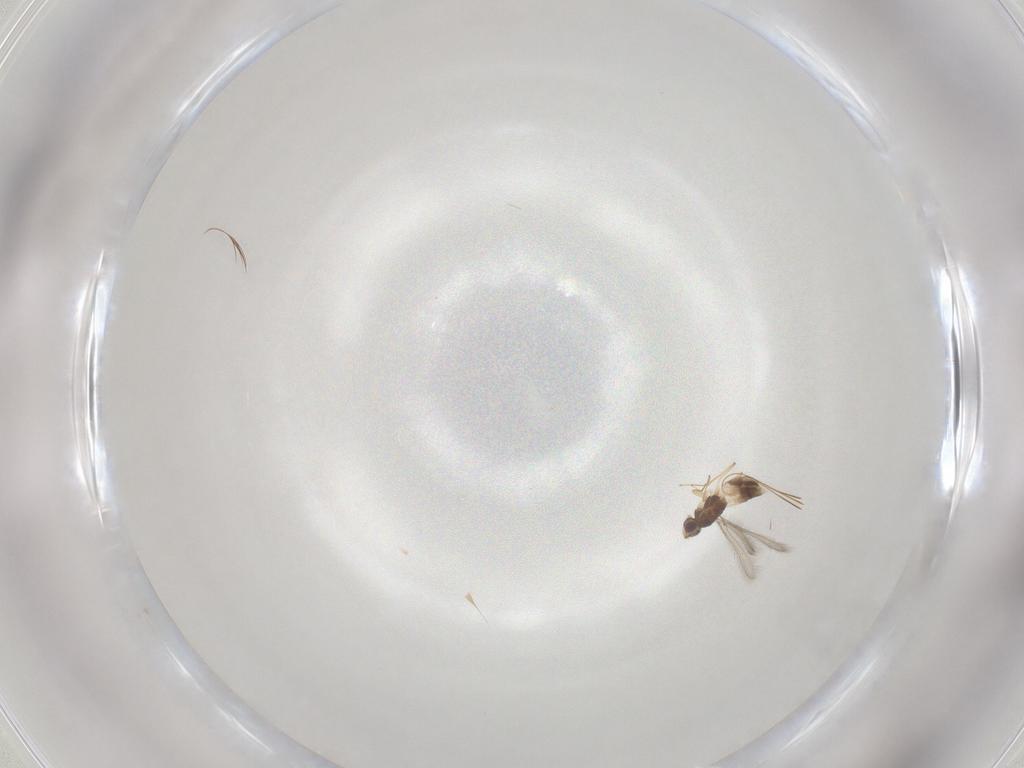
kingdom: Animalia
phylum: Arthropoda
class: Insecta
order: Hymenoptera
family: Mymaridae
